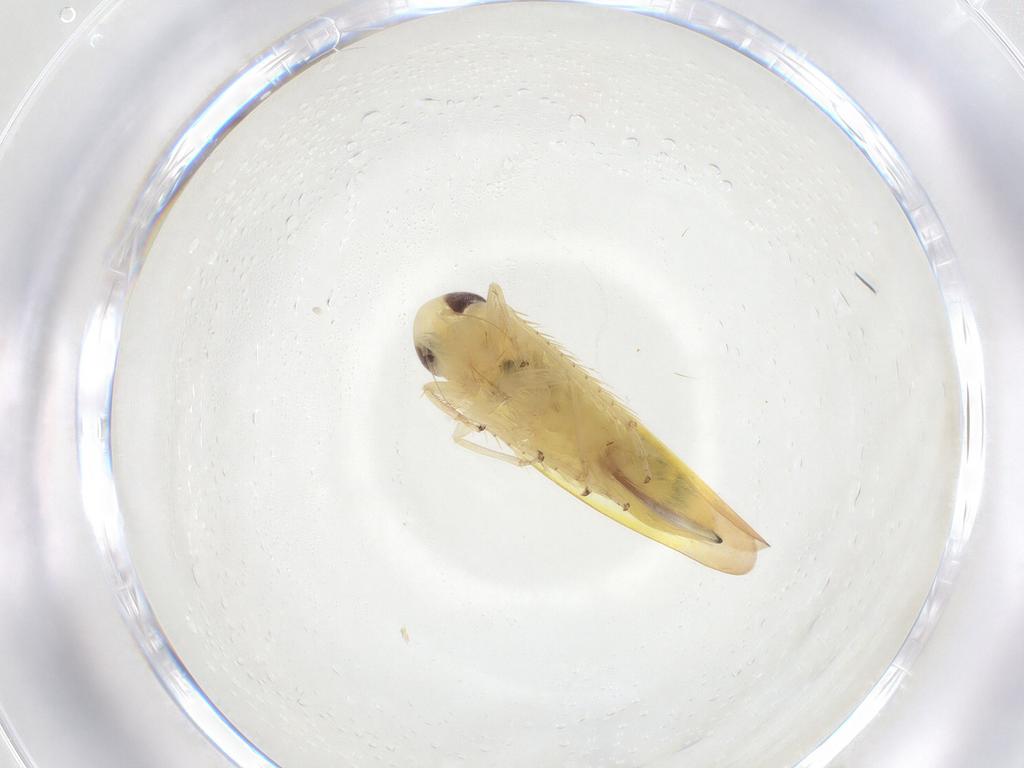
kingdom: Animalia
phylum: Arthropoda
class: Insecta
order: Hemiptera
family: Cicadellidae
